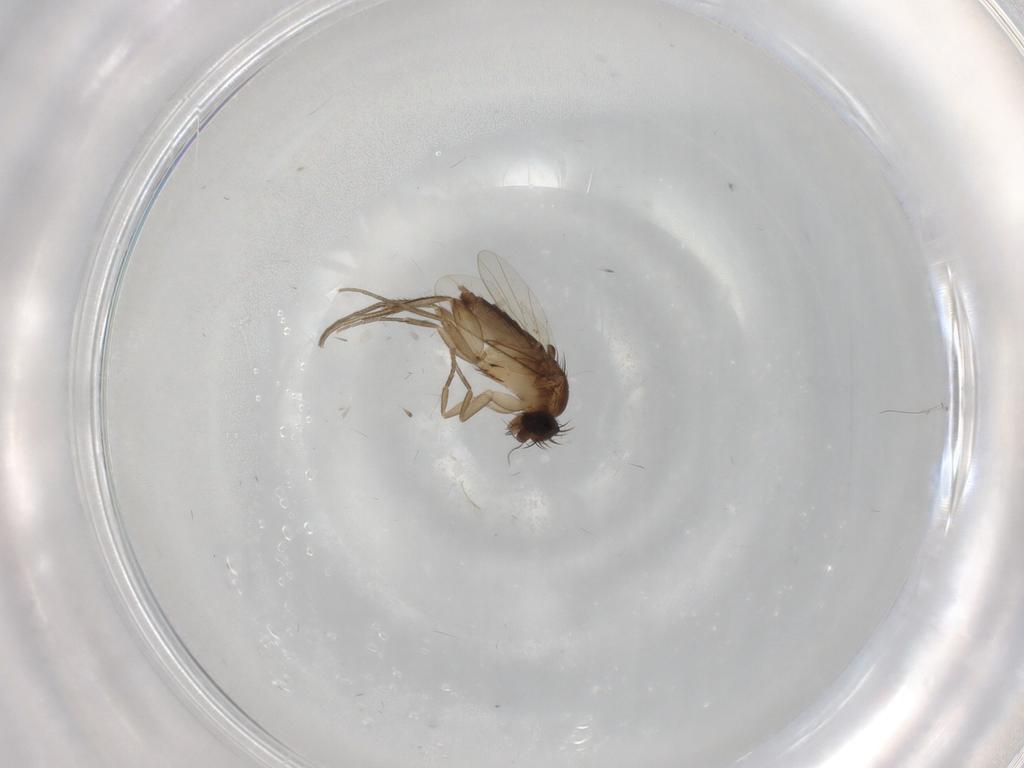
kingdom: Animalia
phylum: Arthropoda
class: Insecta
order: Diptera
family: Phoridae
